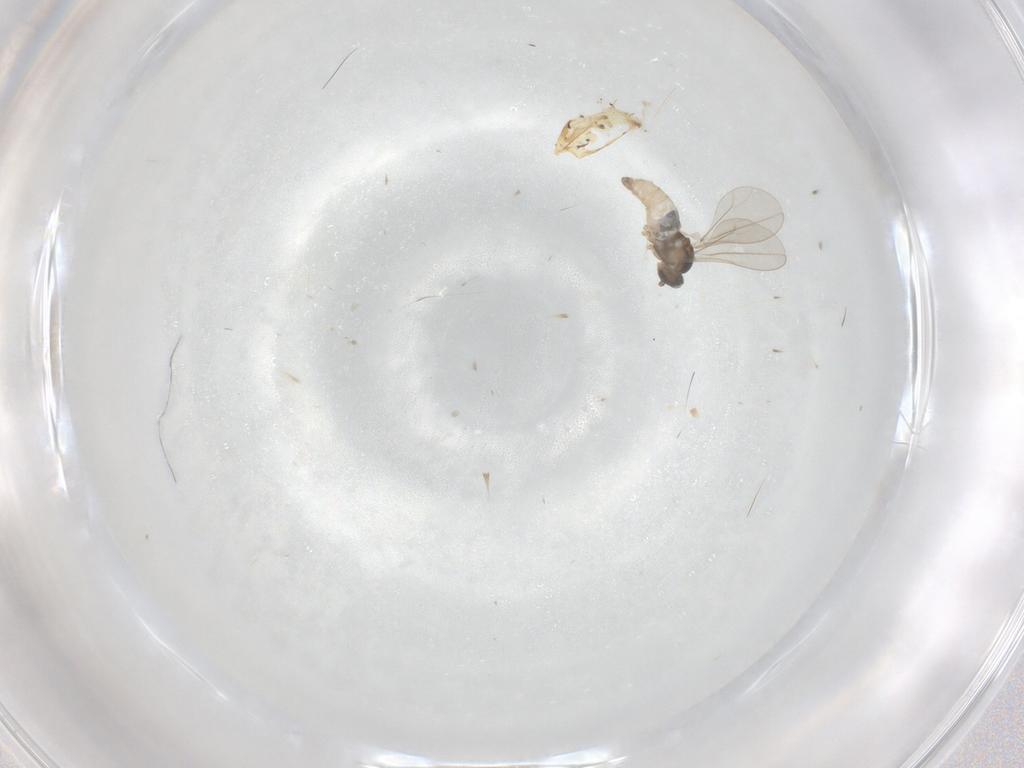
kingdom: Animalia
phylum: Arthropoda
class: Insecta
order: Diptera
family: Cecidomyiidae
